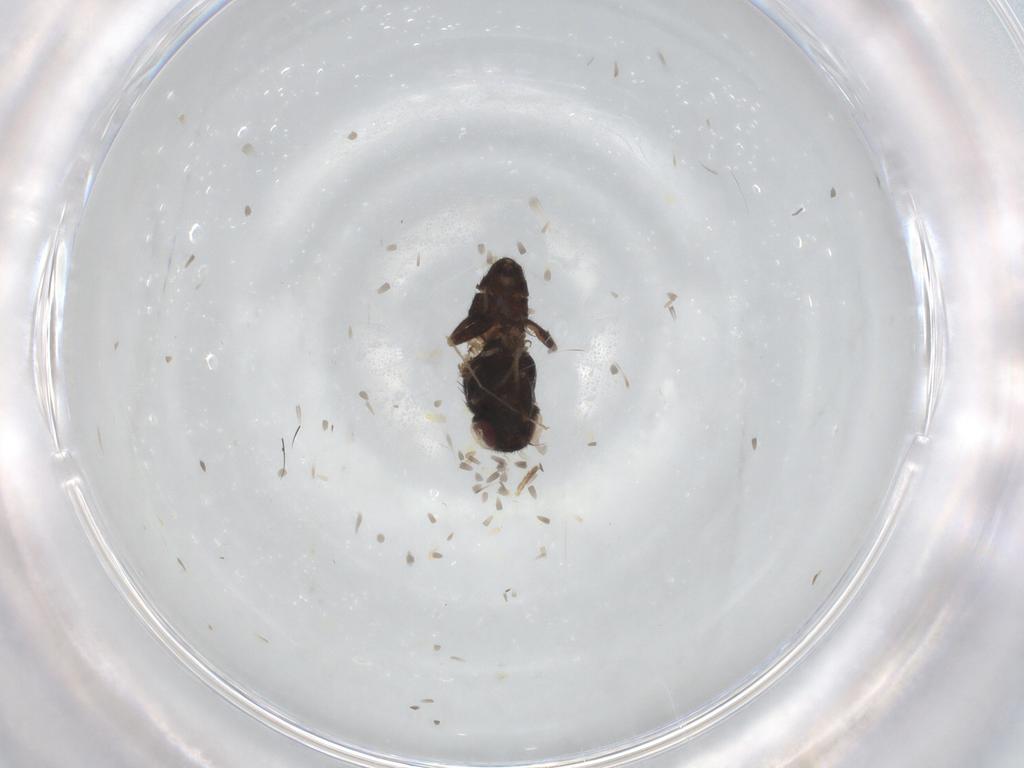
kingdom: Animalia
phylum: Arthropoda
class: Insecta
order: Diptera
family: Chloropidae
